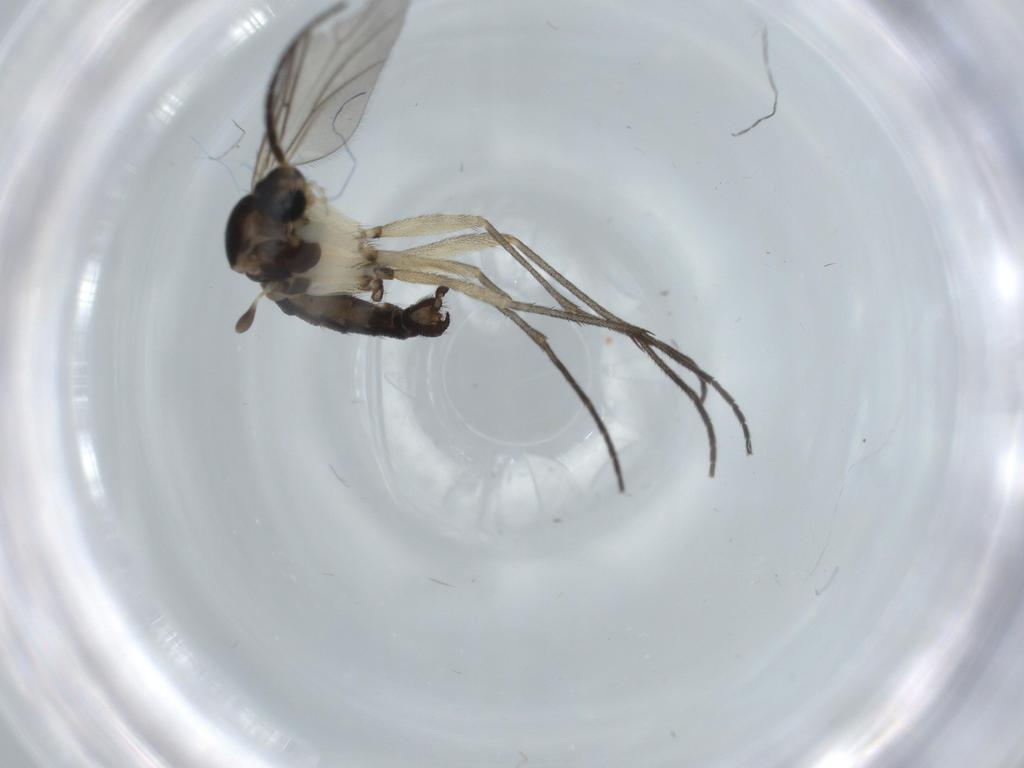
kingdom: Animalia
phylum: Arthropoda
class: Insecta
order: Diptera
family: Sciaridae
